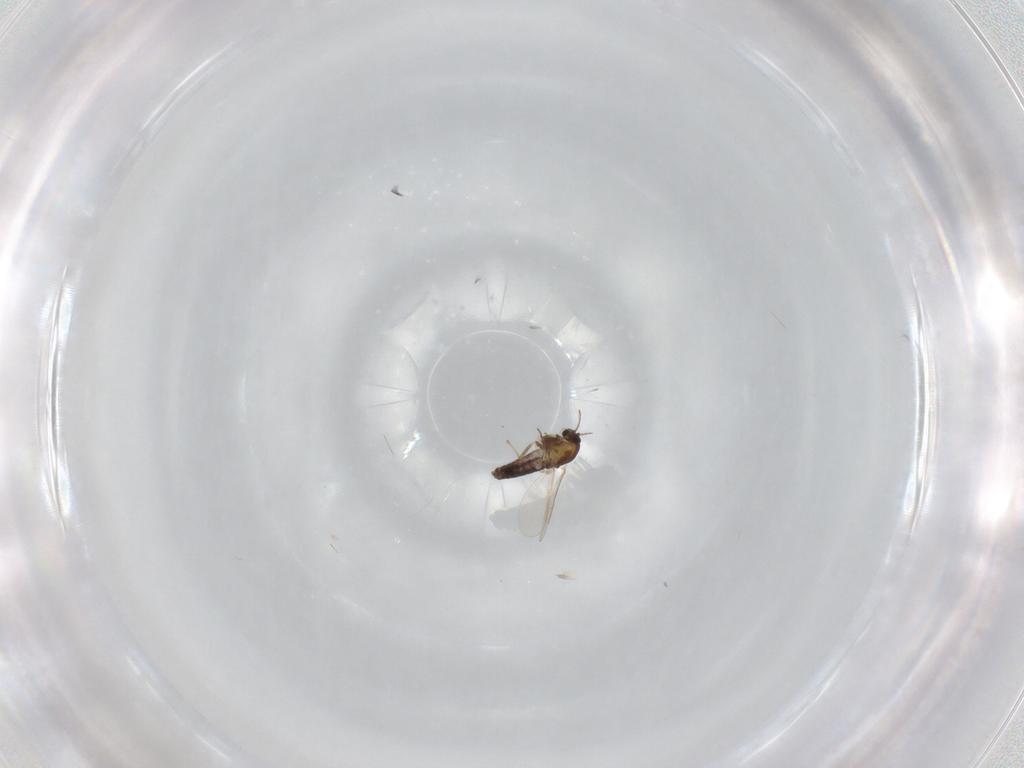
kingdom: Animalia
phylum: Arthropoda
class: Insecta
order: Diptera
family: Chironomidae
